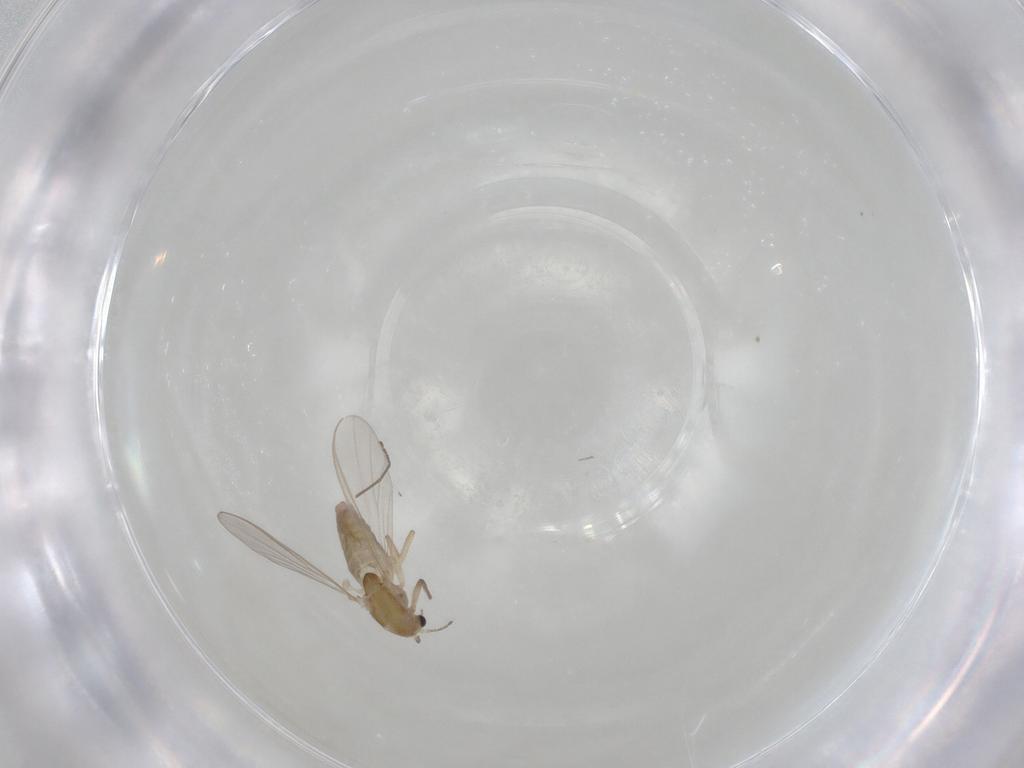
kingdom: Animalia
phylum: Arthropoda
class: Insecta
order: Diptera
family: Chironomidae
